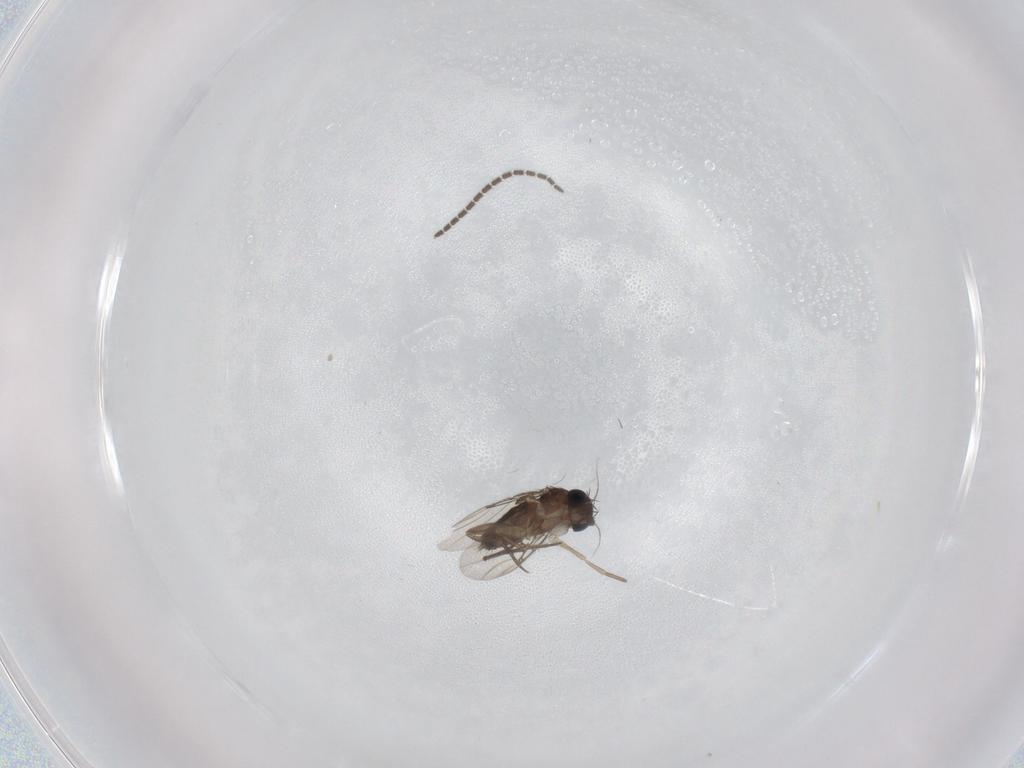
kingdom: Animalia
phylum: Arthropoda
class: Insecta
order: Diptera
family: Phoridae
